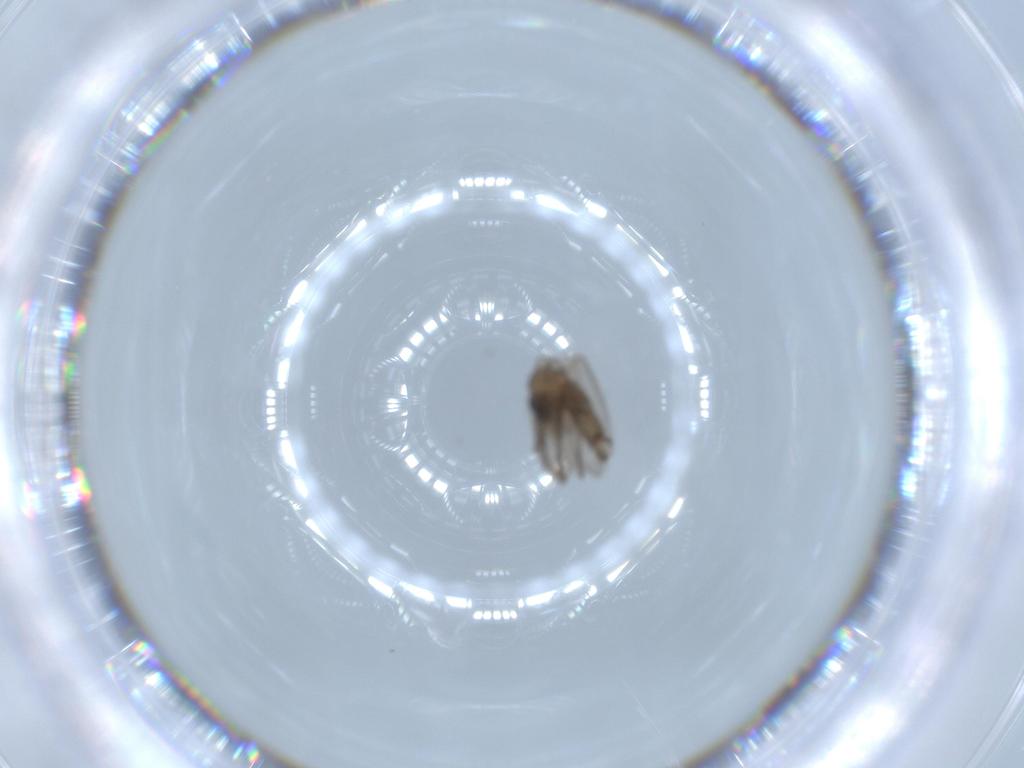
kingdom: Animalia
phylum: Arthropoda
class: Insecta
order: Diptera
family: Psychodidae
